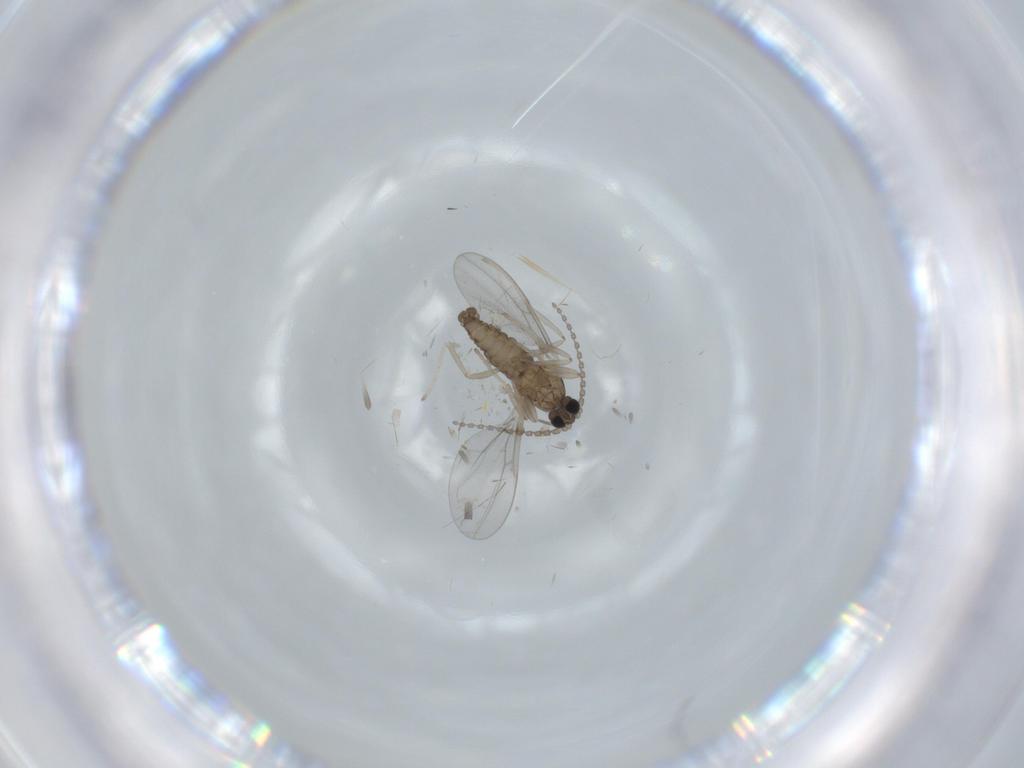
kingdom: Animalia
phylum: Arthropoda
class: Insecta
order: Diptera
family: Cecidomyiidae
